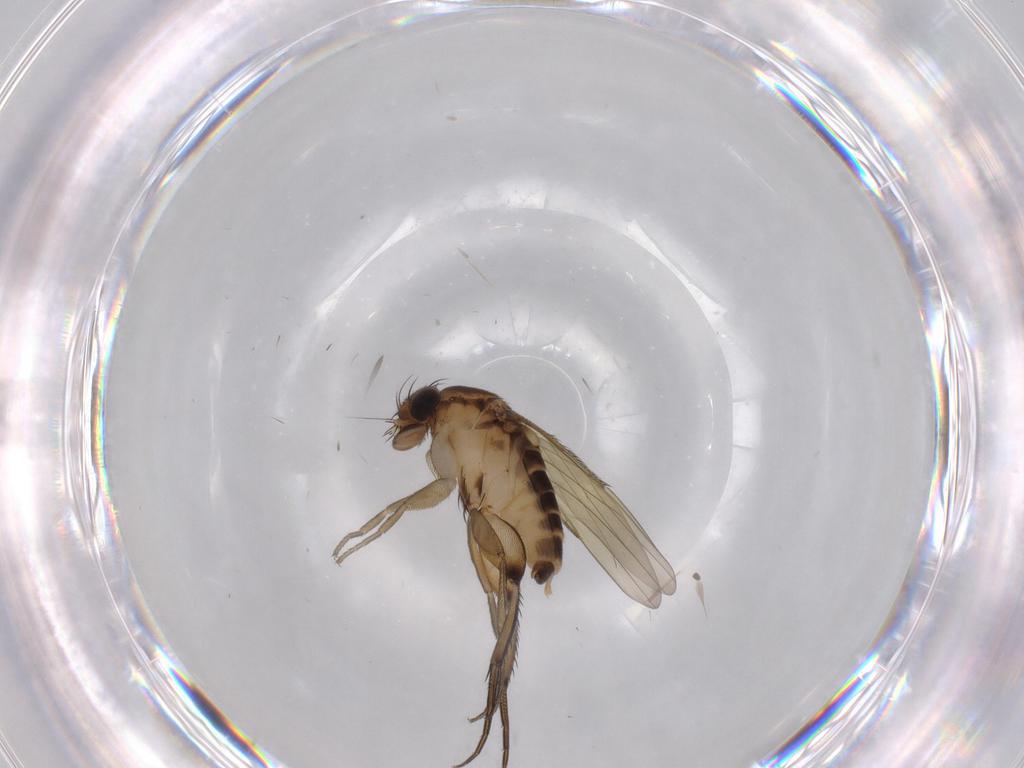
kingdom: Animalia
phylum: Arthropoda
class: Insecta
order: Diptera
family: Phoridae
